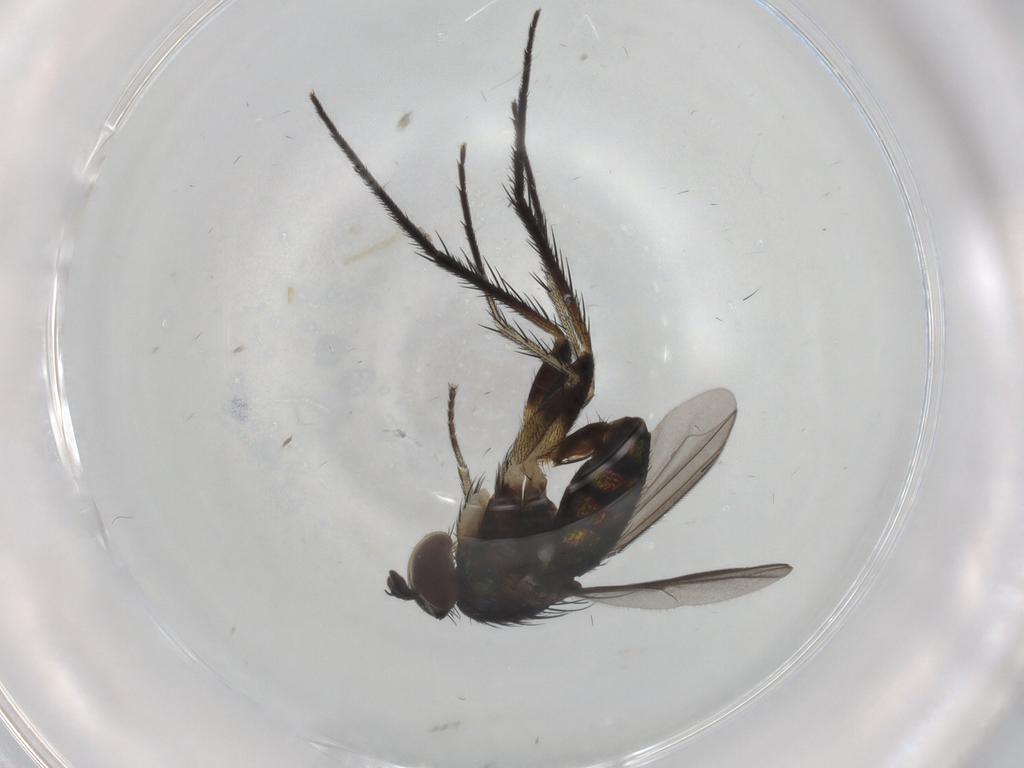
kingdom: Animalia
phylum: Arthropoda
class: Insecta
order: Diptera
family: Dolichopodidae
